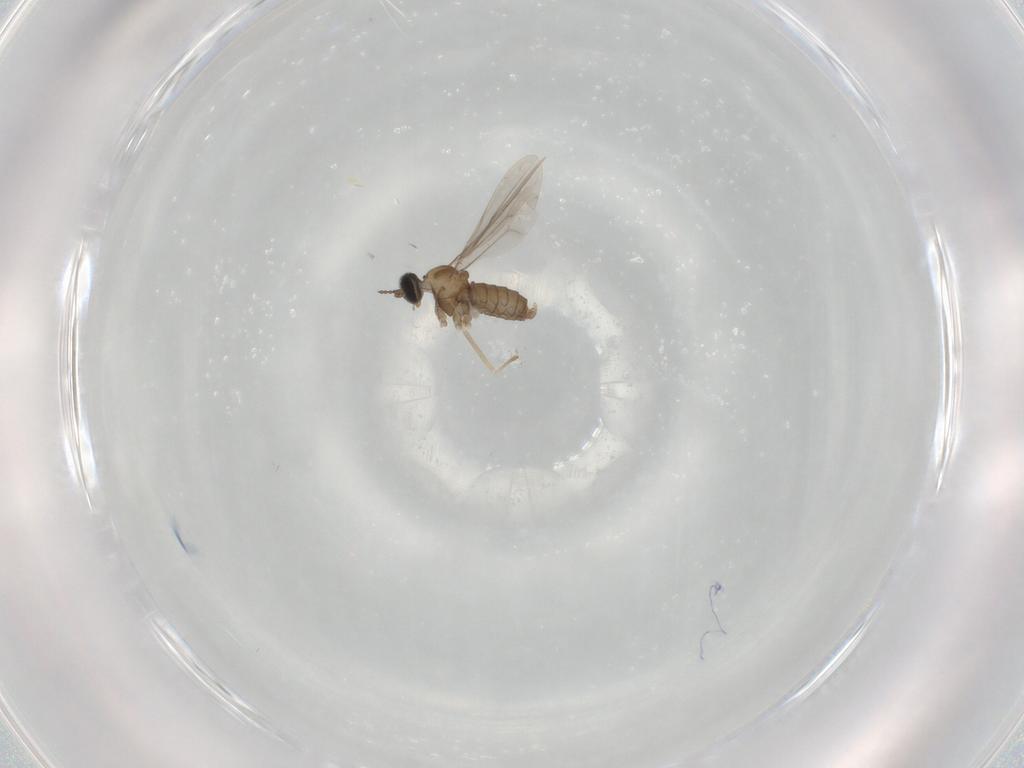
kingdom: Animalia
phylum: Arthropoda
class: Insecta
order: Diptera
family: Cecidomyiidae
